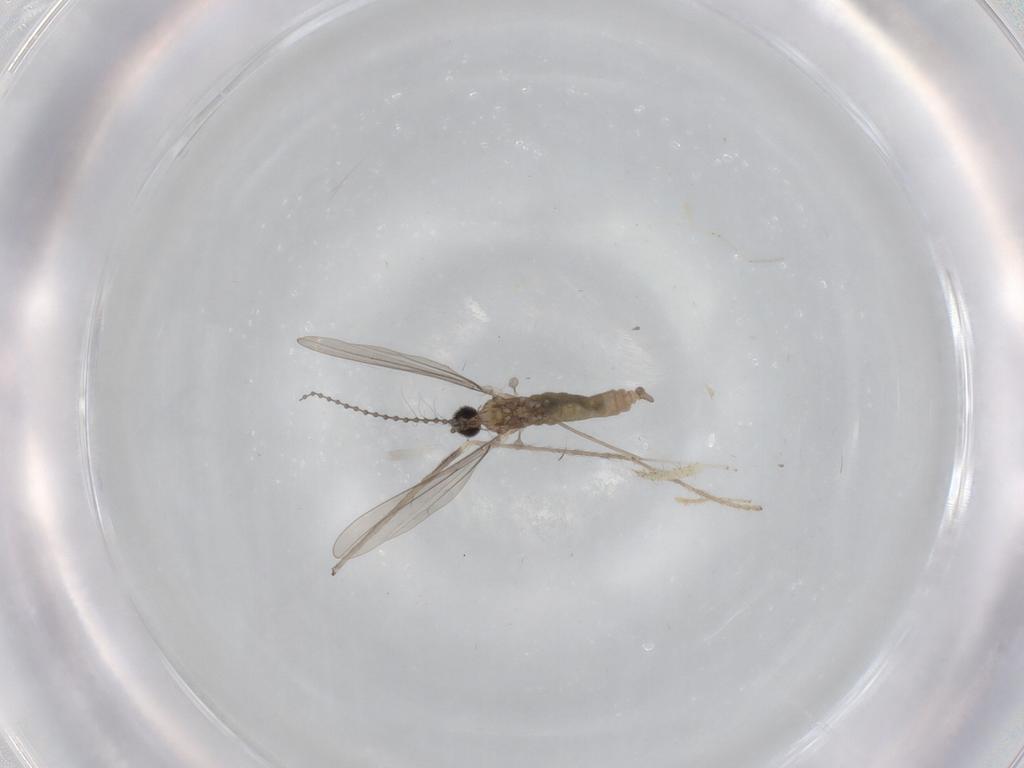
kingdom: Animalia
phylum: Arthropoda
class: Insecta
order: Diptera
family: Cecidomyiidae
